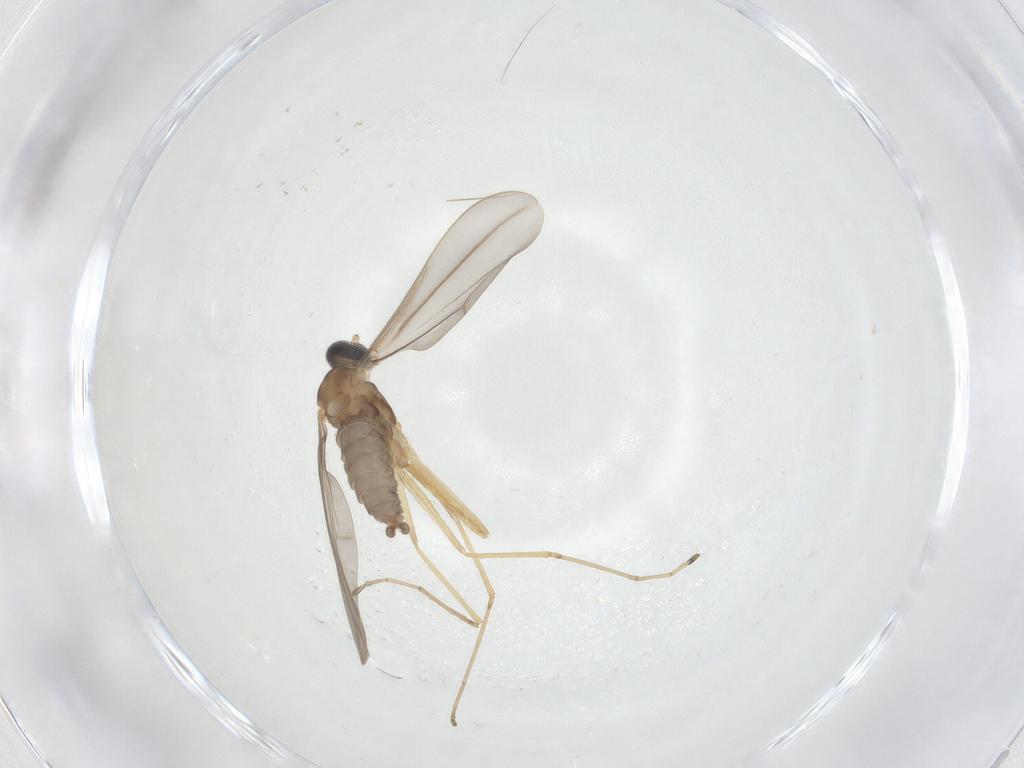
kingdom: Animalia
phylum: Arthropoda
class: Insecta
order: Diptera
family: Cecidomyiidae
